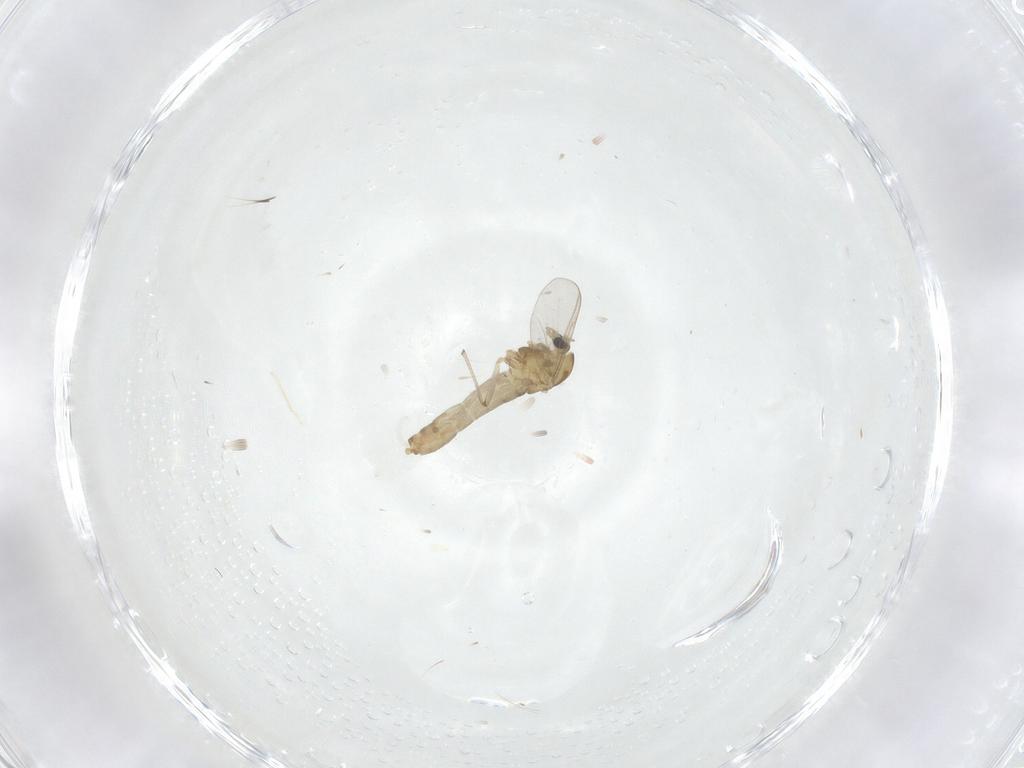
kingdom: Animalia
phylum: Arthropoda
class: Insecta
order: Diptera
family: Chironomidae
